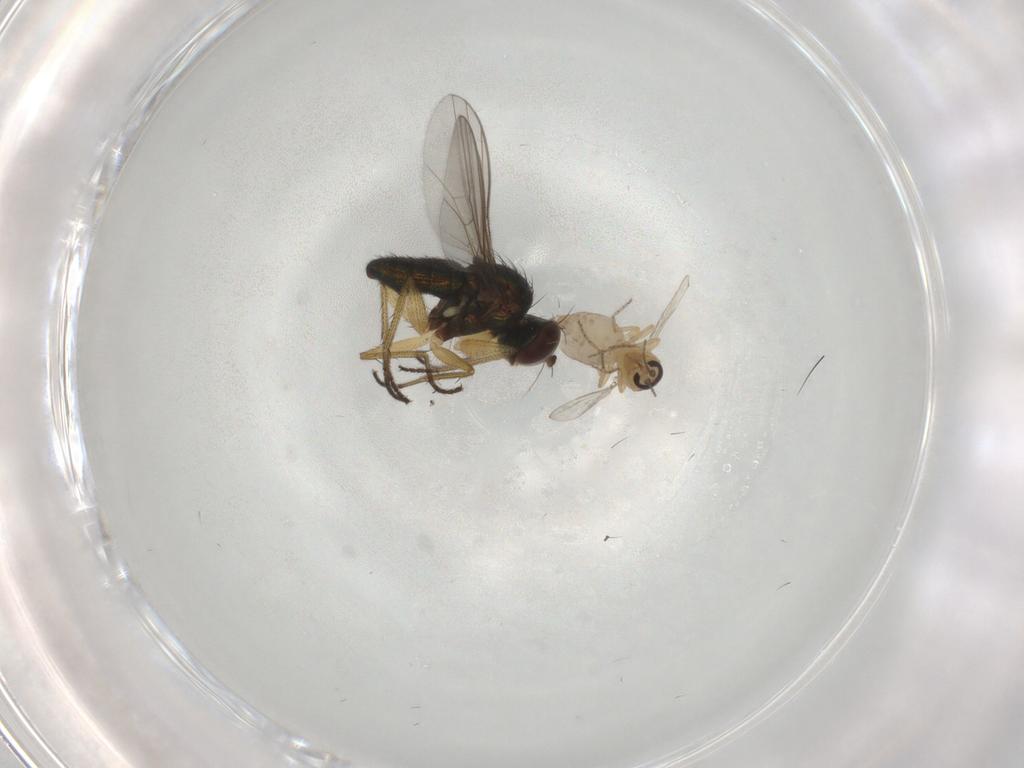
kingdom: Animalia
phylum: Arthropoda
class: Insecta
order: Diptera
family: Ceratopogonidae
